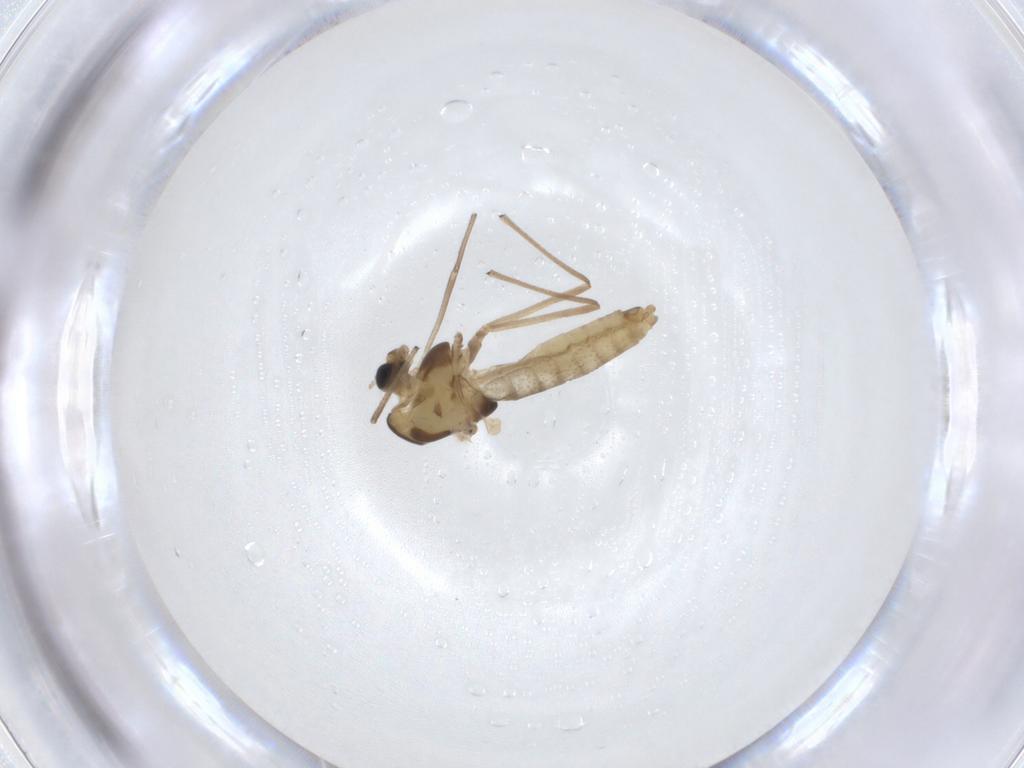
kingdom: Animalia
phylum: Arthropoda
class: Insecta
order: Diptera
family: Chironomidae
